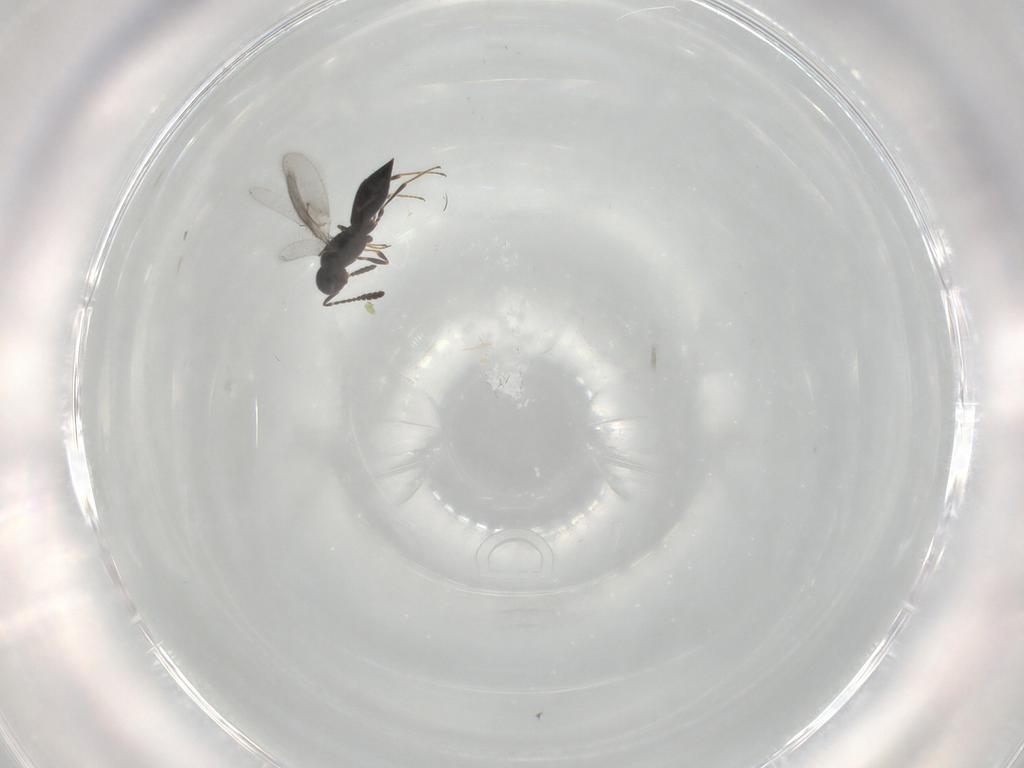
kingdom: Animalia
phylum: Arthropoda
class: Insecta
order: Hymenoptera
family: Scelionidae
